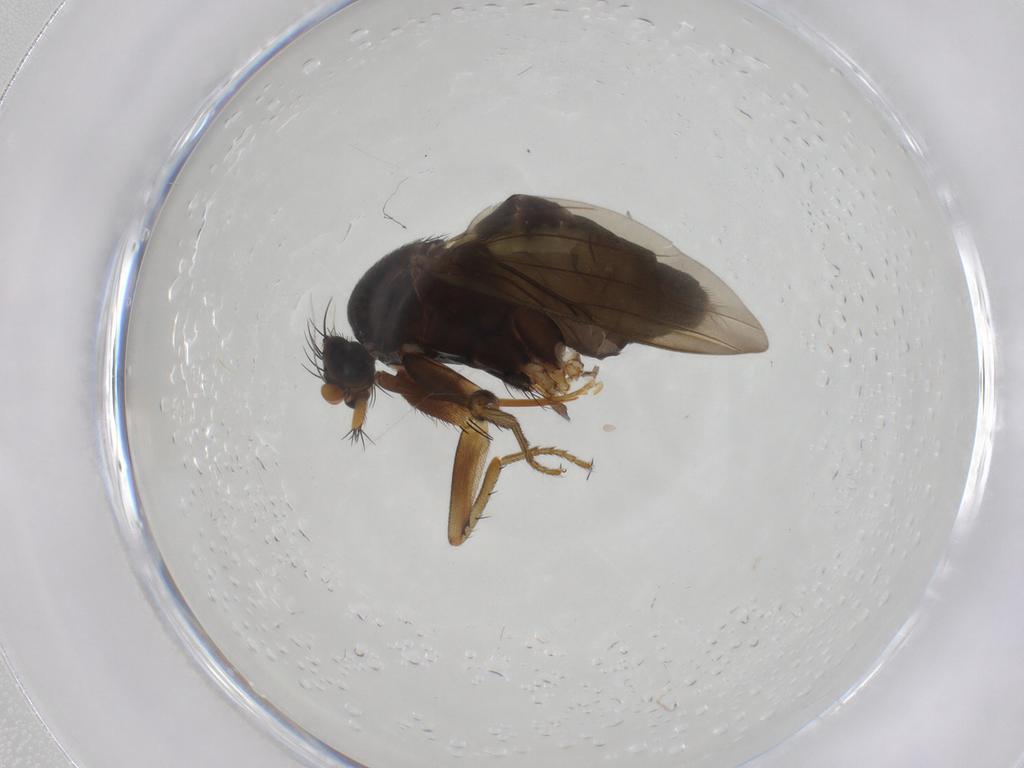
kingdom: Animalia
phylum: Arthropoda
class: Insecta
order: Diptera
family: Phoridae
